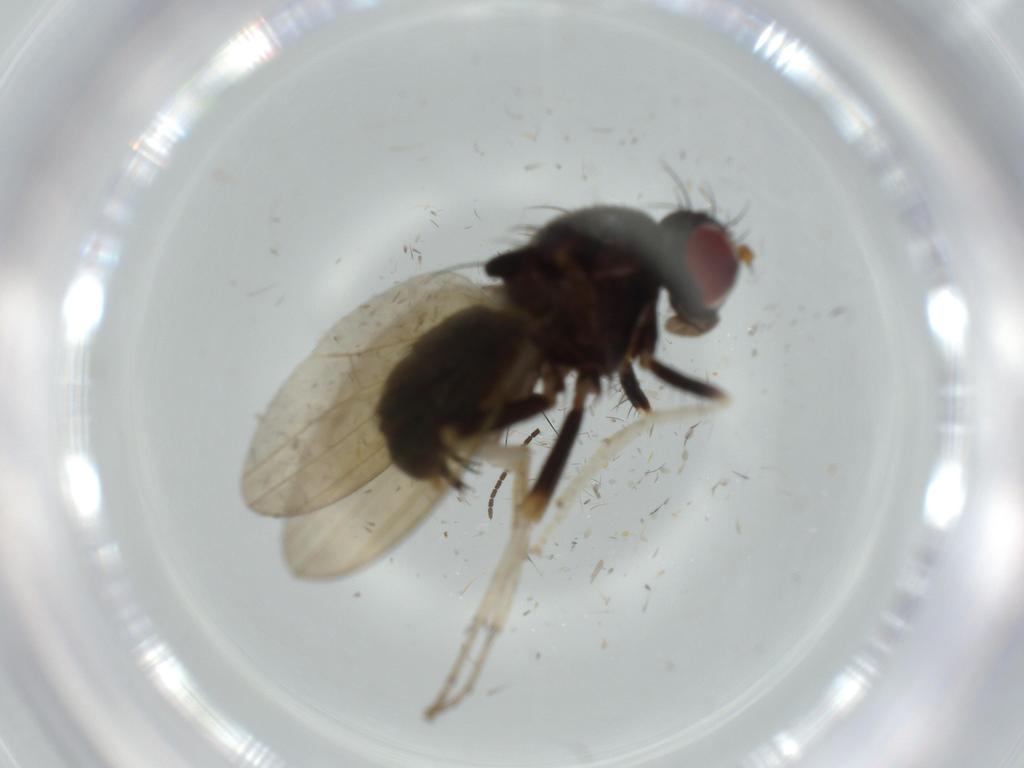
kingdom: Animalia
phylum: Arthropoda
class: Insecta
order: Diptera
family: Sciaridae
